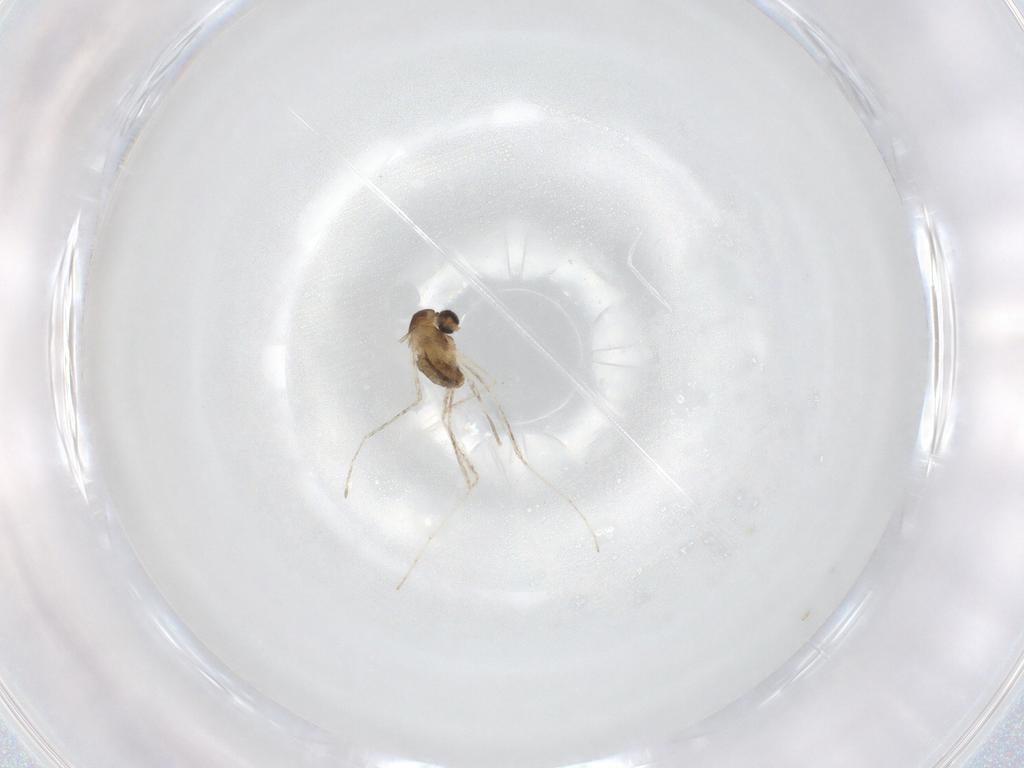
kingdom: Animalia
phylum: Arthropoda
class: Insecta
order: Diptera
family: Cecidomyiidae
